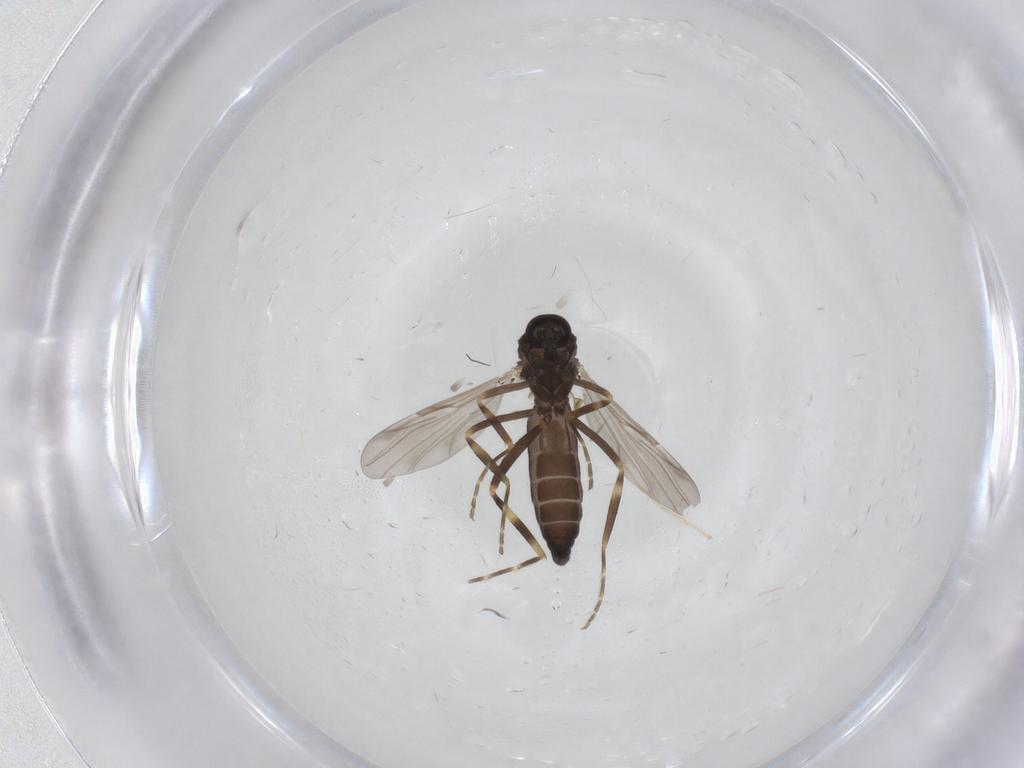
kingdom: Animalia
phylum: Arthropoda
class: Insecta
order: Diptera
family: Ceratopogonidae
